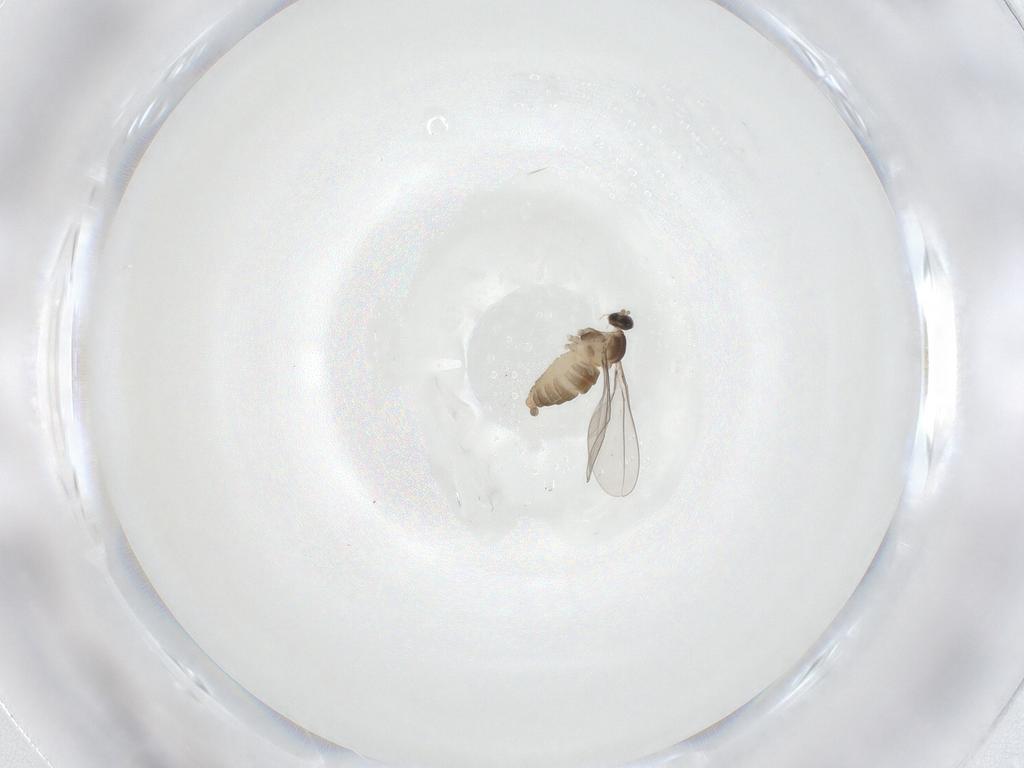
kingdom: Animalia
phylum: Arthropoda
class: Insecta
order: Diptera
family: Cecidomyiidae
